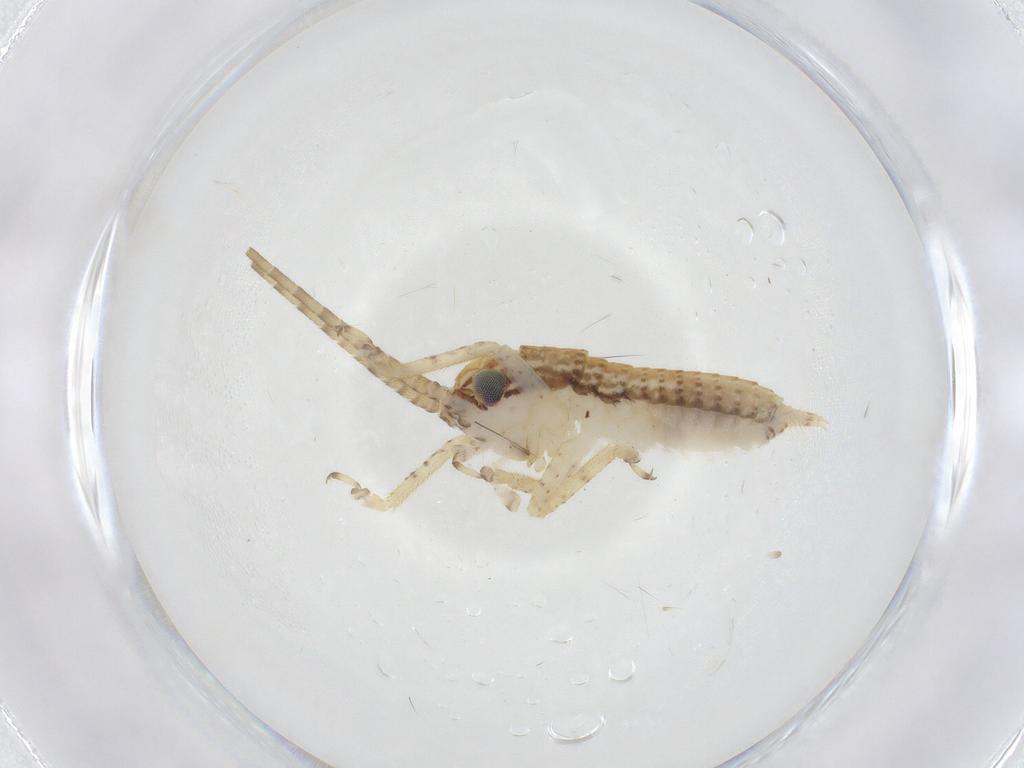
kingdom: Animalia
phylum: Arthropoda
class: Insecta
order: Orthoptera
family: Gryllidae
